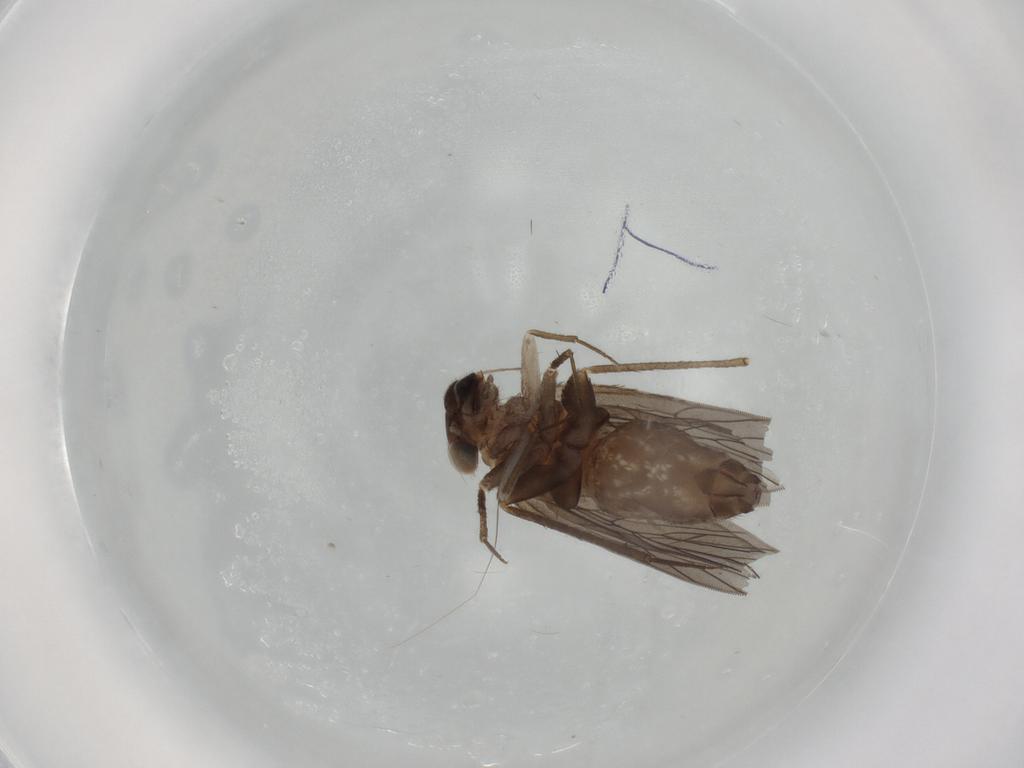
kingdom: Animalia
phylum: Arthropoda
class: Insecta
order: Psocodea
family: Lepidopsocidae
